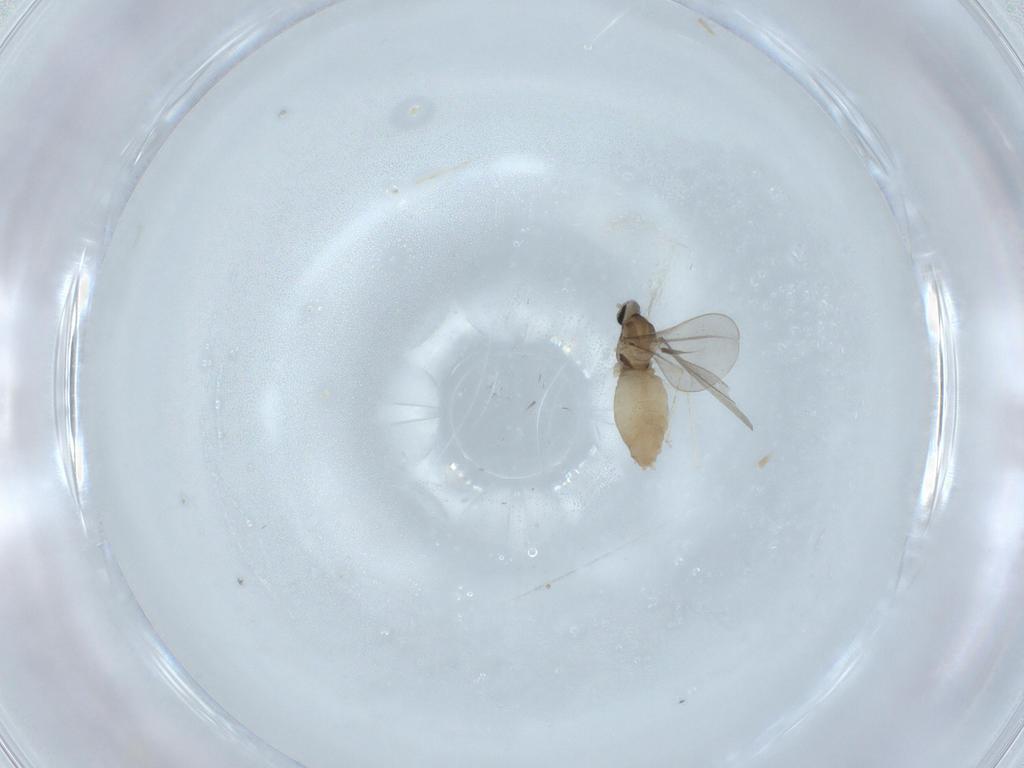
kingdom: Animalia
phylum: Arthropoda
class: Insecta
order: Diptera
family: Cecidomyiidae
